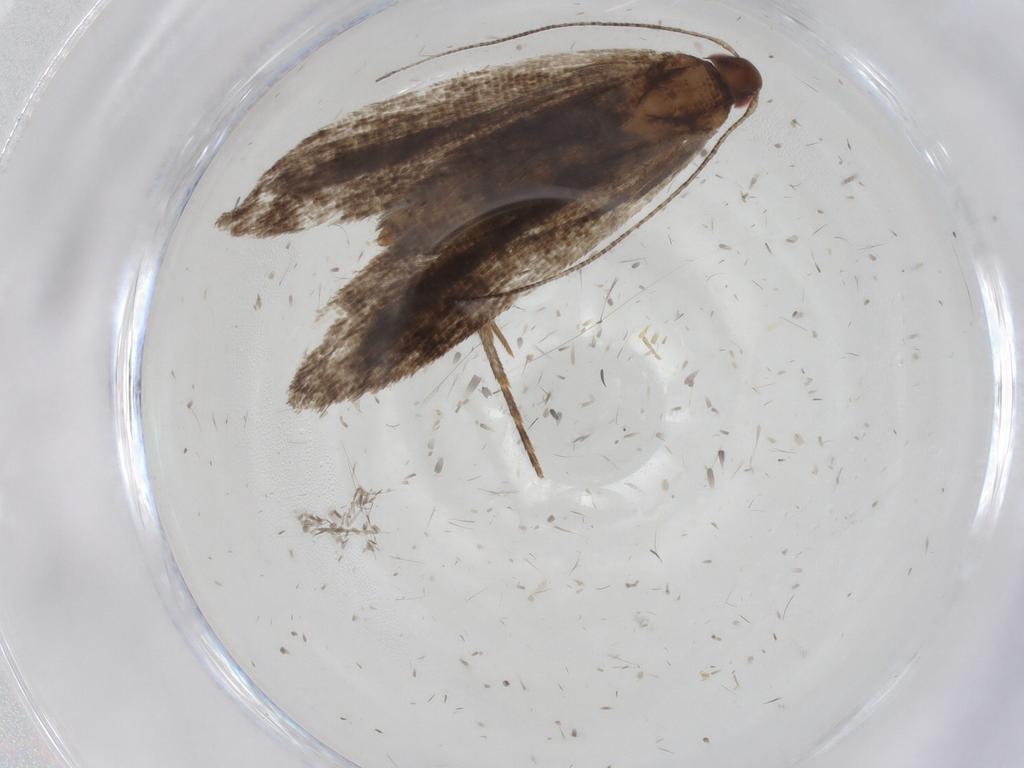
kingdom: Animalia
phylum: Arthropoda
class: Insecta
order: Lepidoptera
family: Gelechiidae
